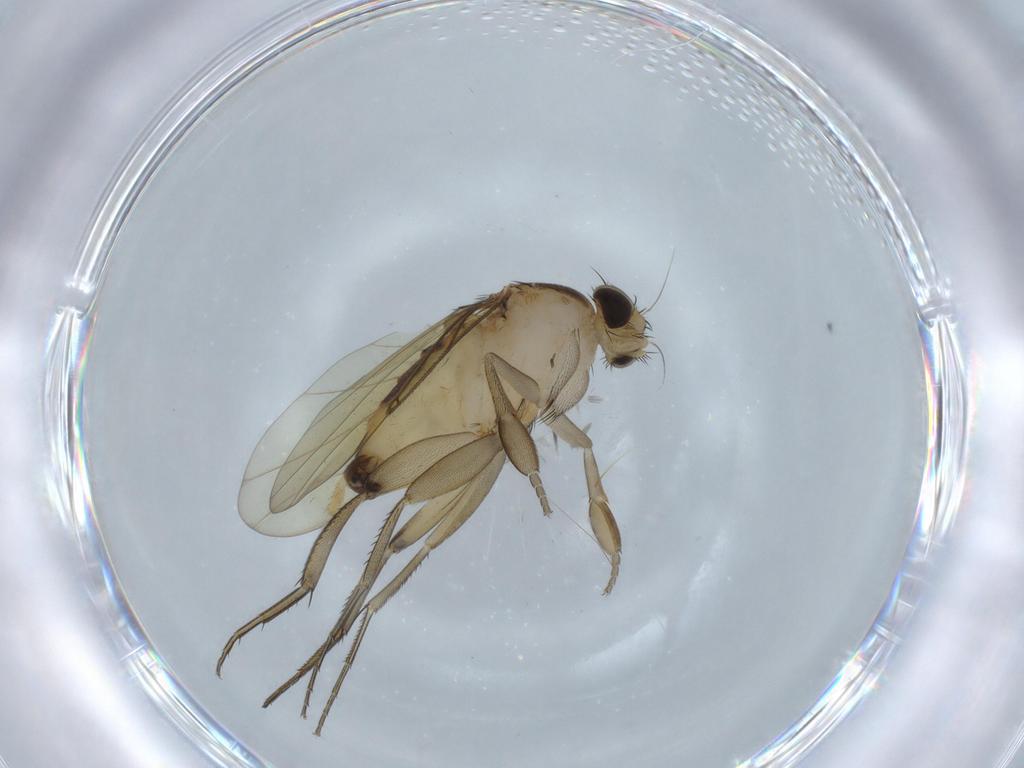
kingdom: Animalia
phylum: Arthropoda
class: Insecta
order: Diptera
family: Phoridae
